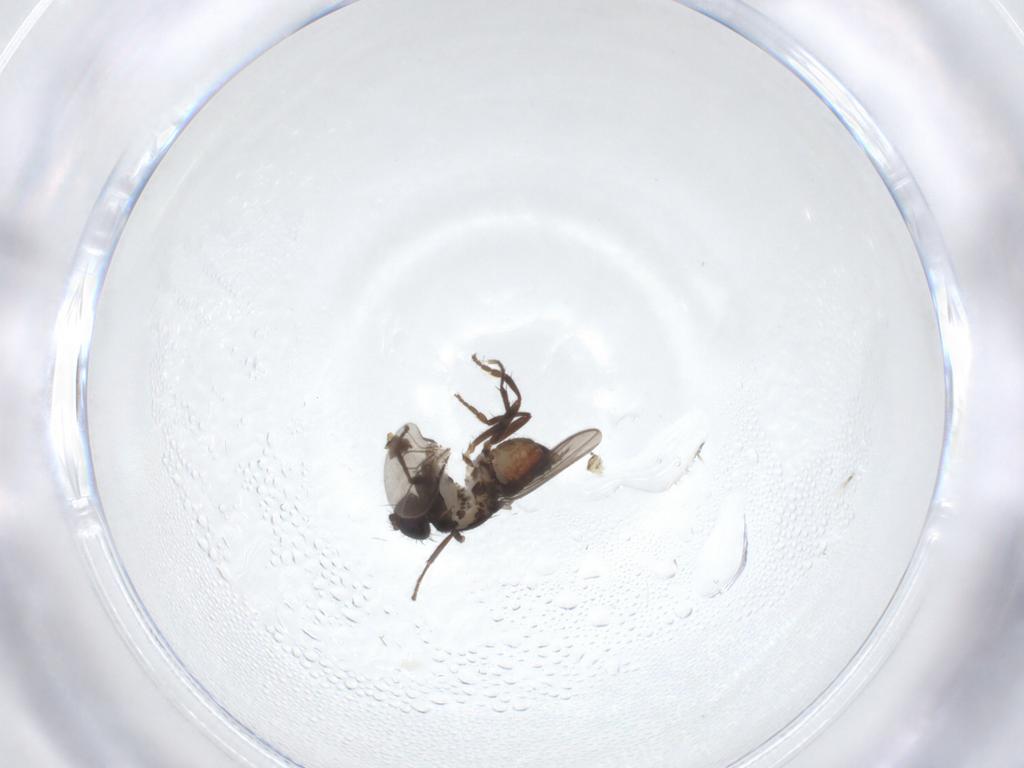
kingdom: Animalia
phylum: Arthropoda
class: Insecta
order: Diptera
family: Sphaeroceridae
